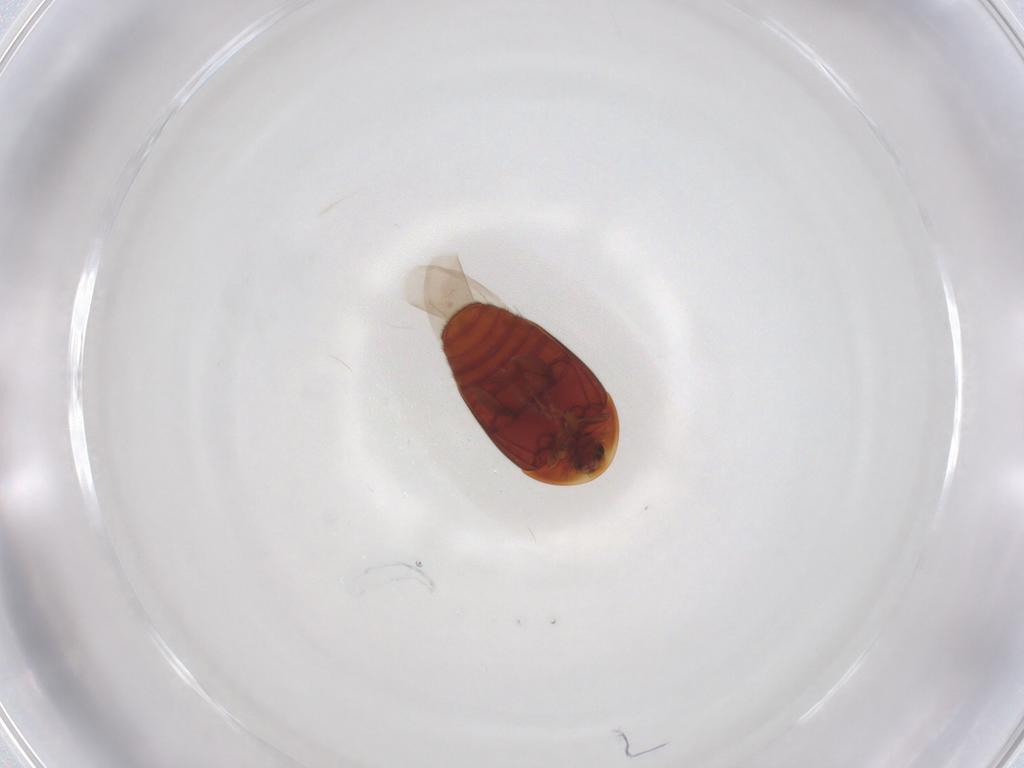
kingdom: Animalia
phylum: Arthropoda
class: Insecta
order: Coleoptera
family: Corylophidae
